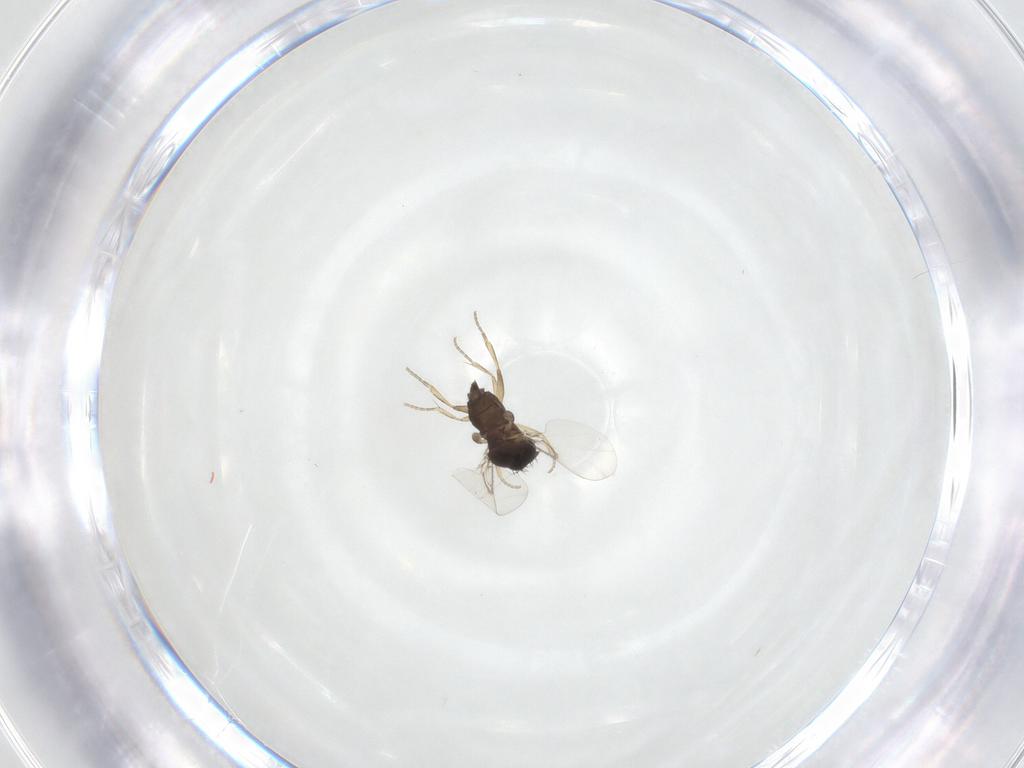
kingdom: Animalia
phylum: Arthropoda
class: Insecta
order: Diptera
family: Phoridae
